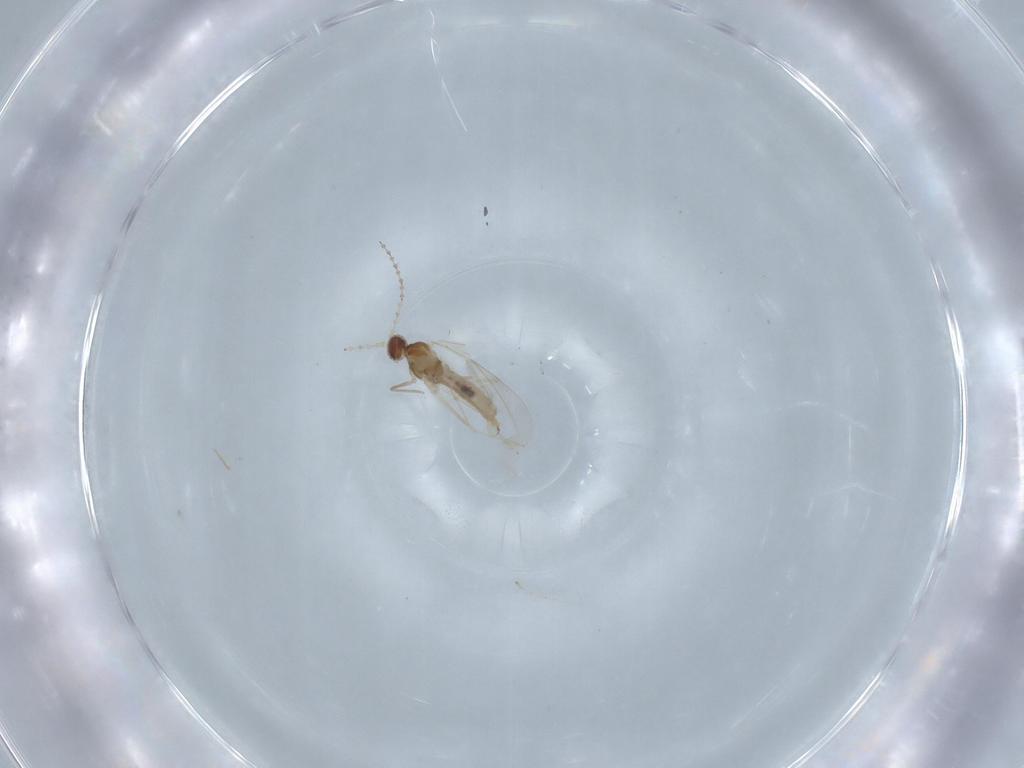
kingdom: Animalia
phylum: Arthropoda
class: Insecta
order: Diptera
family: Cecidomyiidae
